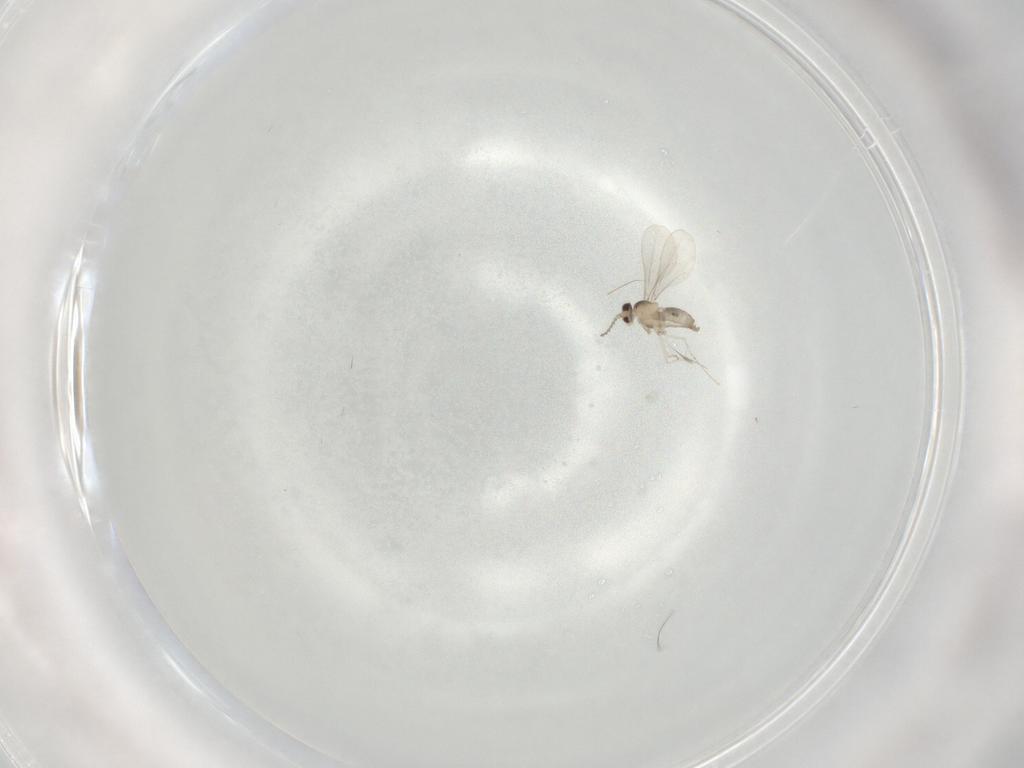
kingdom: Animalia
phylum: Arthropoda
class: Insecta
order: Diptera
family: Cecidomyiidae
